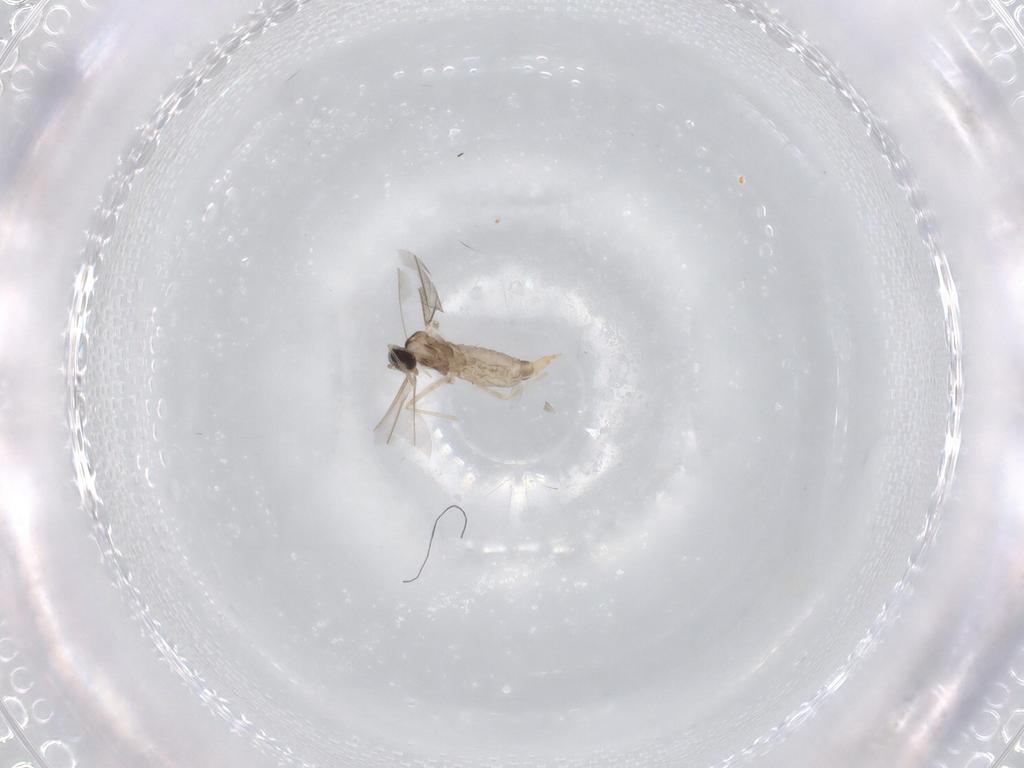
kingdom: Animalia
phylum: Arthropoda
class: Insecta
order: Diptera
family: Cecidomyiidae
